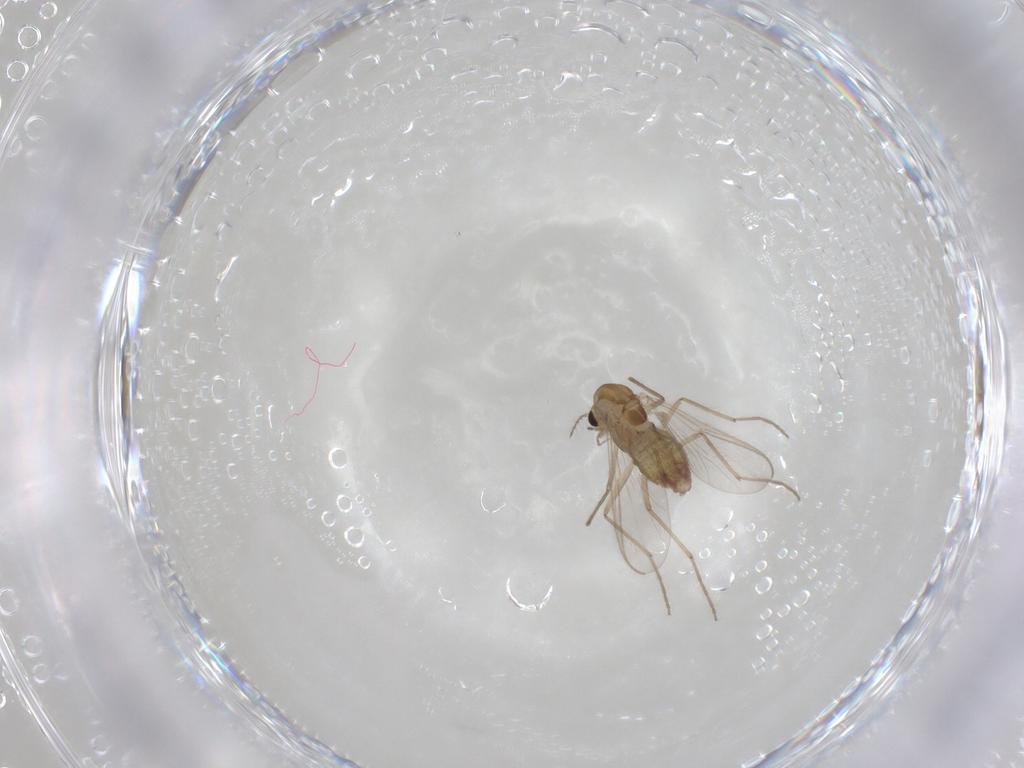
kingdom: Animalia
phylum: Arthropoda
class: Insecta
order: Diptera
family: Chironomidae
